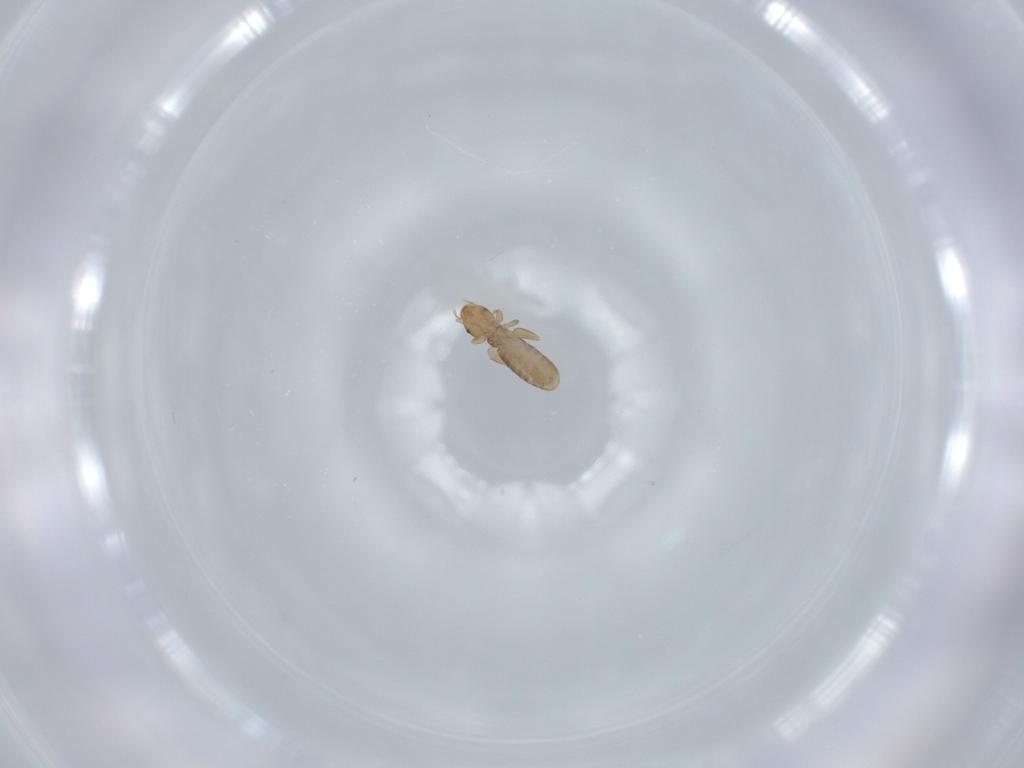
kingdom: Animalia
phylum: Arthropoda
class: Insecta
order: Psocodea
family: Liposcelididae
